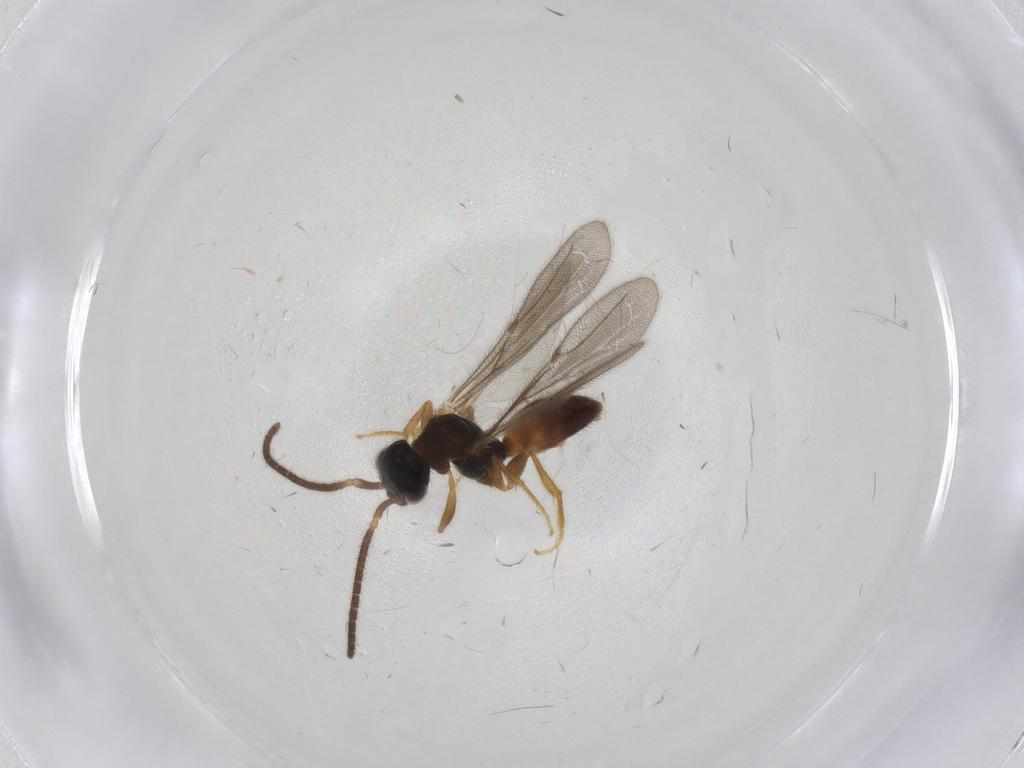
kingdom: Animalia
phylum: Arthropoda
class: Insecta
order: Hymenoptera
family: Bethylidae
